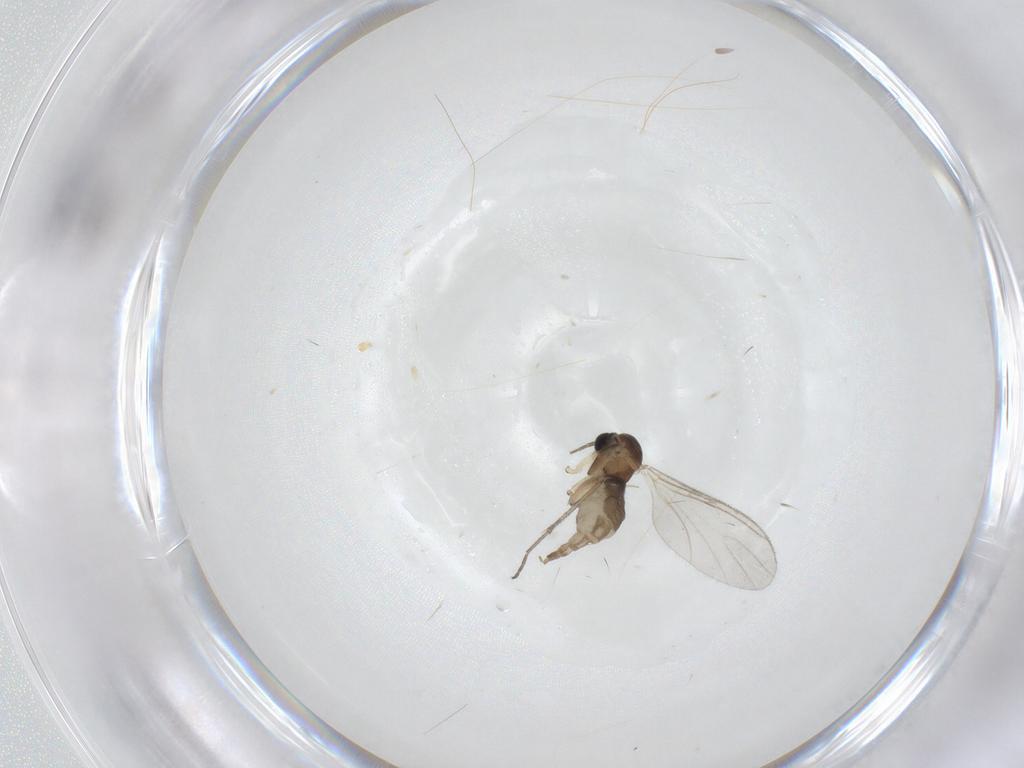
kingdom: Animalia
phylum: Arthropoda
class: Insecta
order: Diptera
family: Sciaridae
